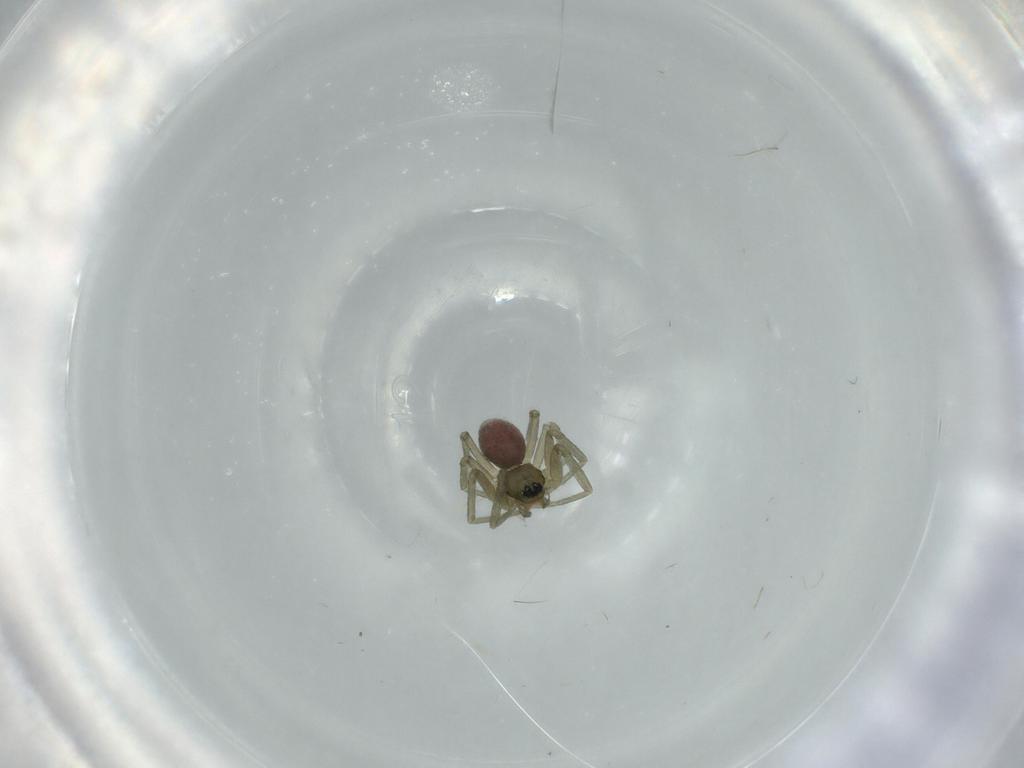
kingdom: Animalia
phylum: Arthropoda
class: Arachnida
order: Araneae
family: Linyphiidae
